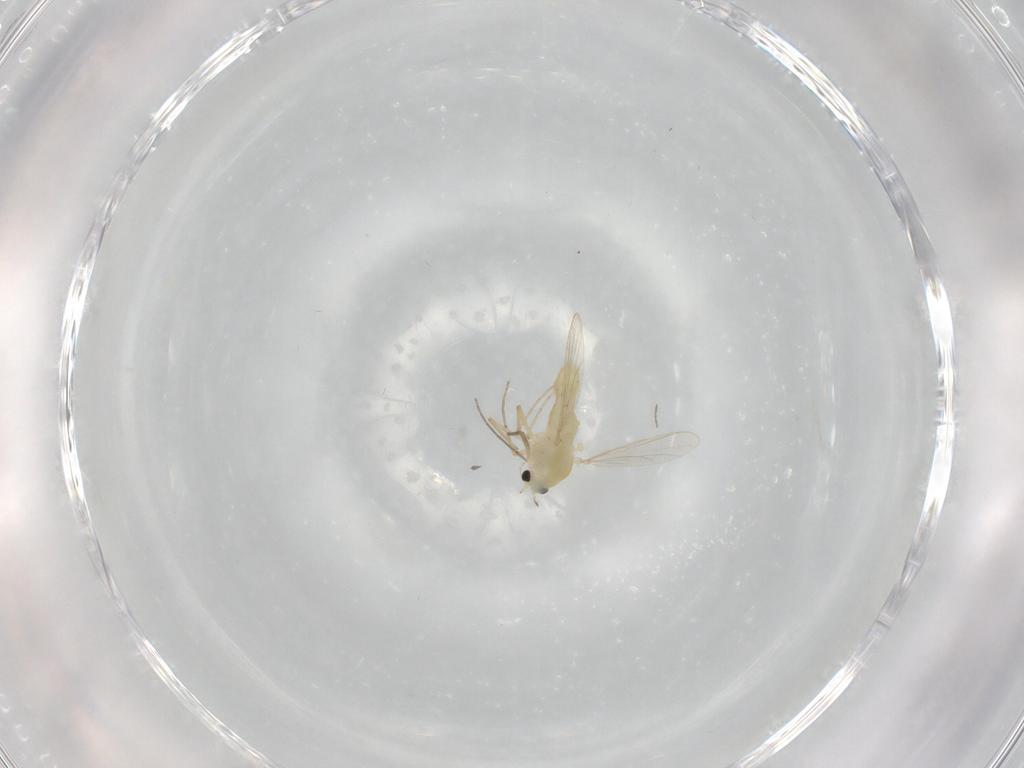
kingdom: Animalia
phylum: Arthropoda
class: Insecta
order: Diptera
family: Chironomidae
